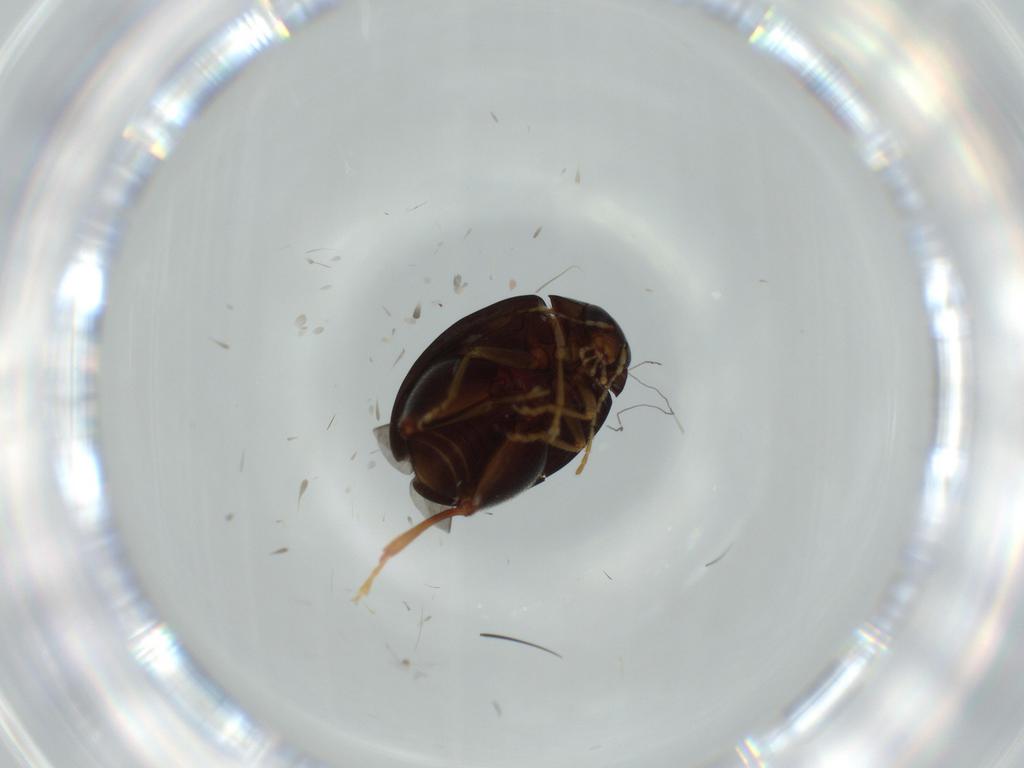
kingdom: Animalia
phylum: Arthropoda
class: Insecta
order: Coleoptera
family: Chrysomelidae
